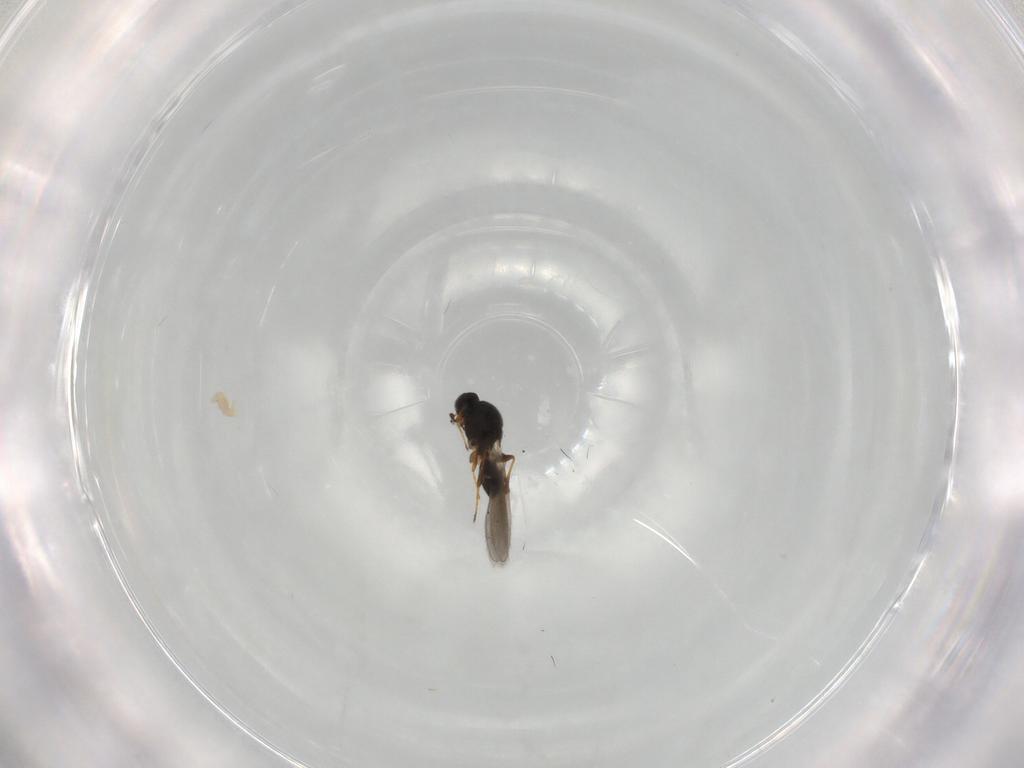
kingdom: Animalia
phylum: Arthropoda
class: Insecta
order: Hymenoptera
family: Platygastridae
